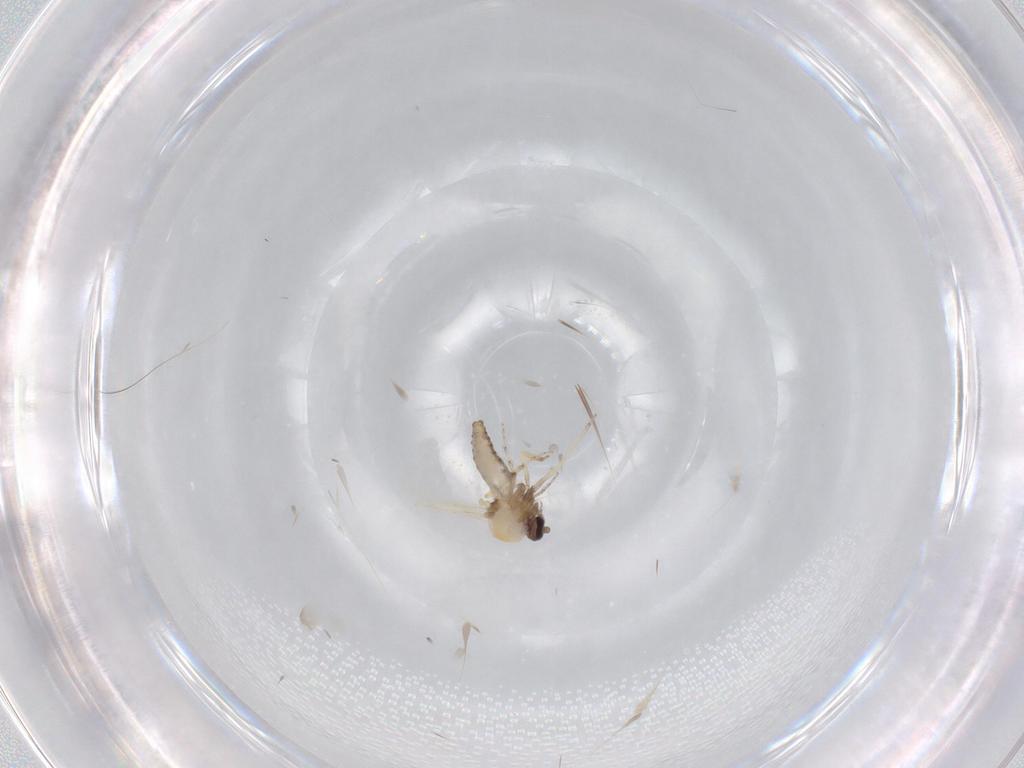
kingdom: Animalia
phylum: Arthropoda
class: Insecta
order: Diptera
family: Ceratopogonidae
